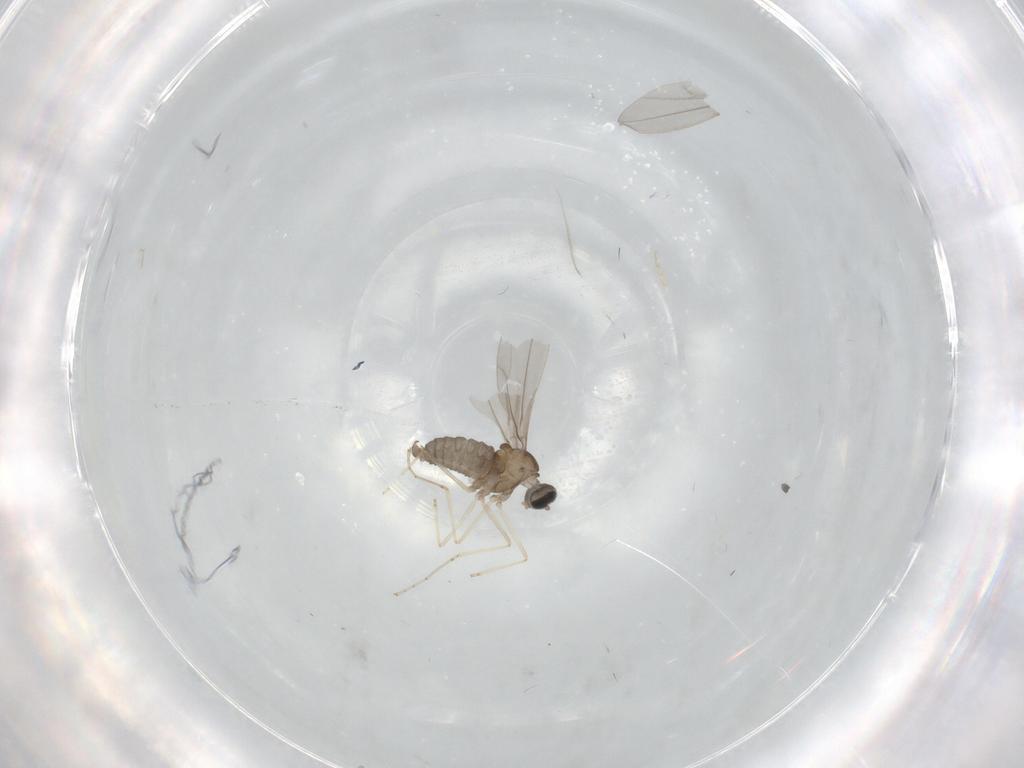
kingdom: Animalia
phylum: Arthropoda
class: Insecta
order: Diptera
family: Cecidomyiidae
